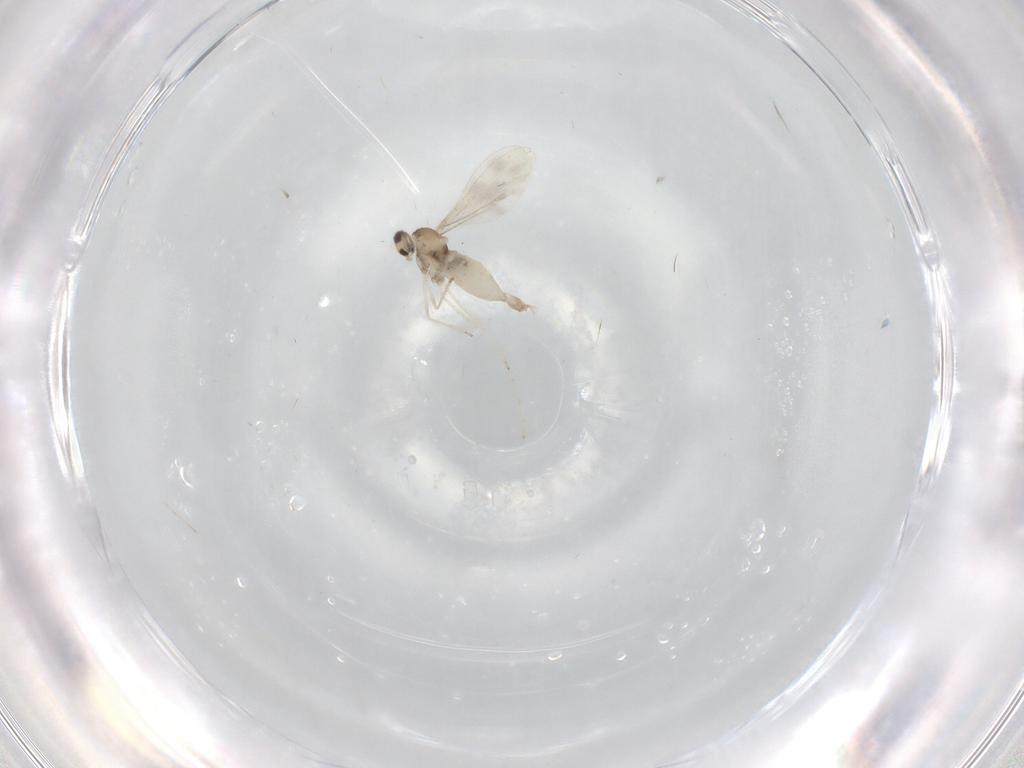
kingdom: Animalia
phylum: Arthropoda
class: Insecta
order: Diptera
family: Cecidomyiidae
